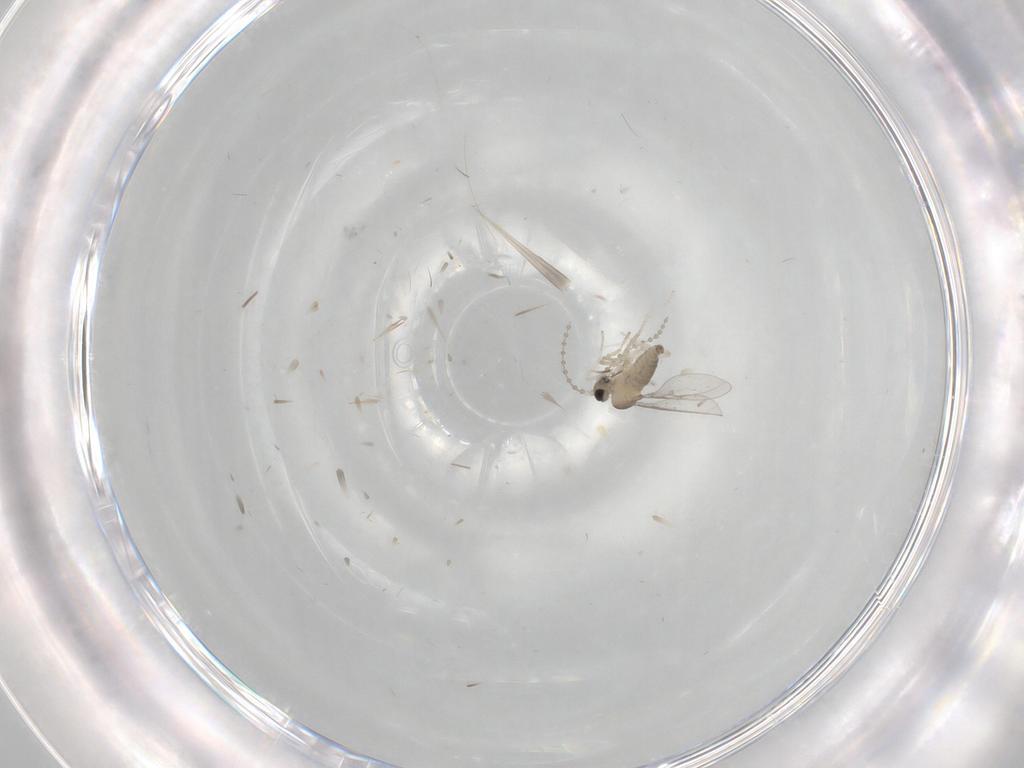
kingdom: Animalia
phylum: Arthropoda
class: Insecta
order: Diptera
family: Cecidomyiidae
